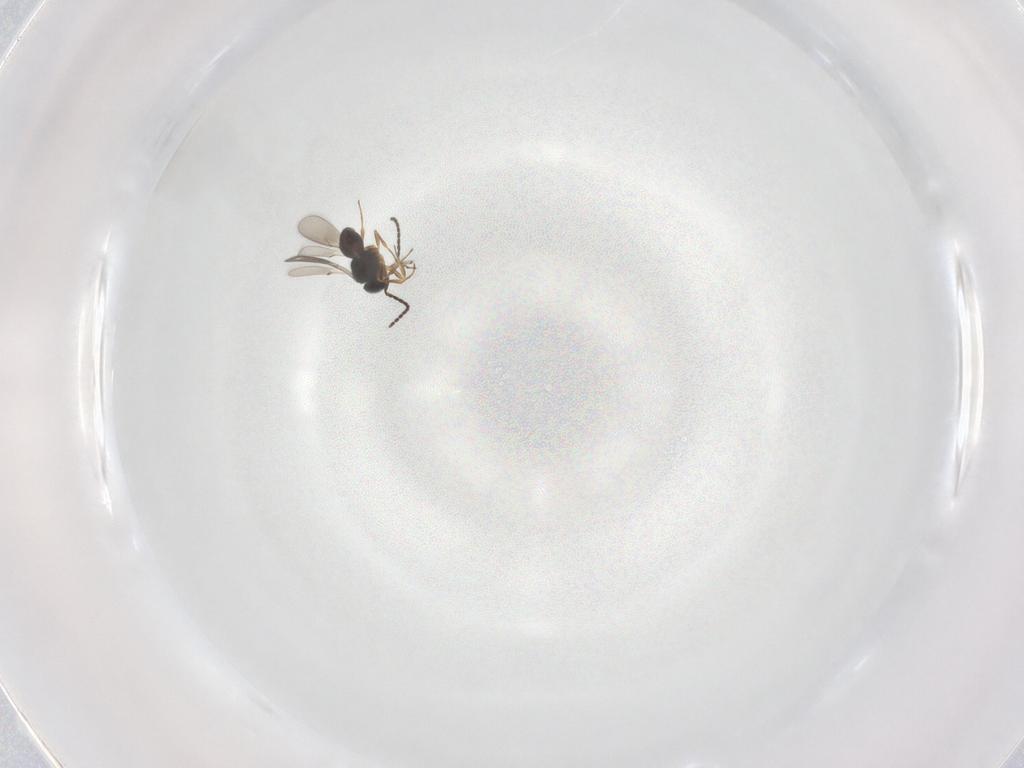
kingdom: Animalia
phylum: Arthropoda
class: Insecta
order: Hymenoptera
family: Scelionidae
